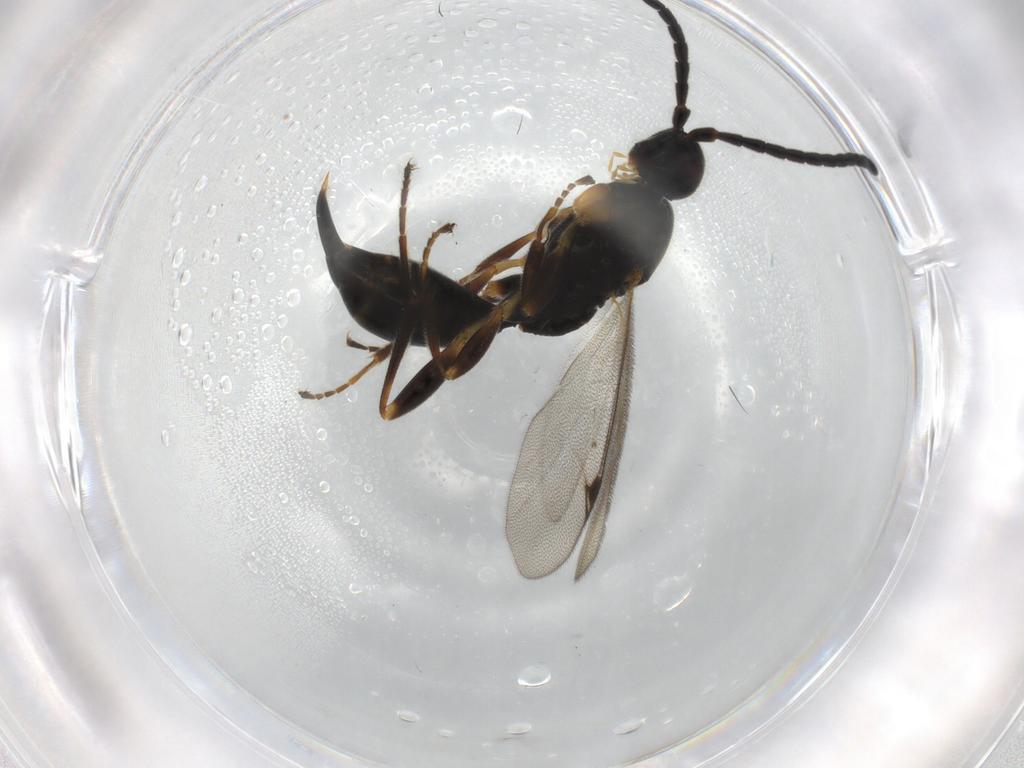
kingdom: Animalia
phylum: Arthropoda
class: Insecta
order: Hymenoptera
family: Proctotrupidae
